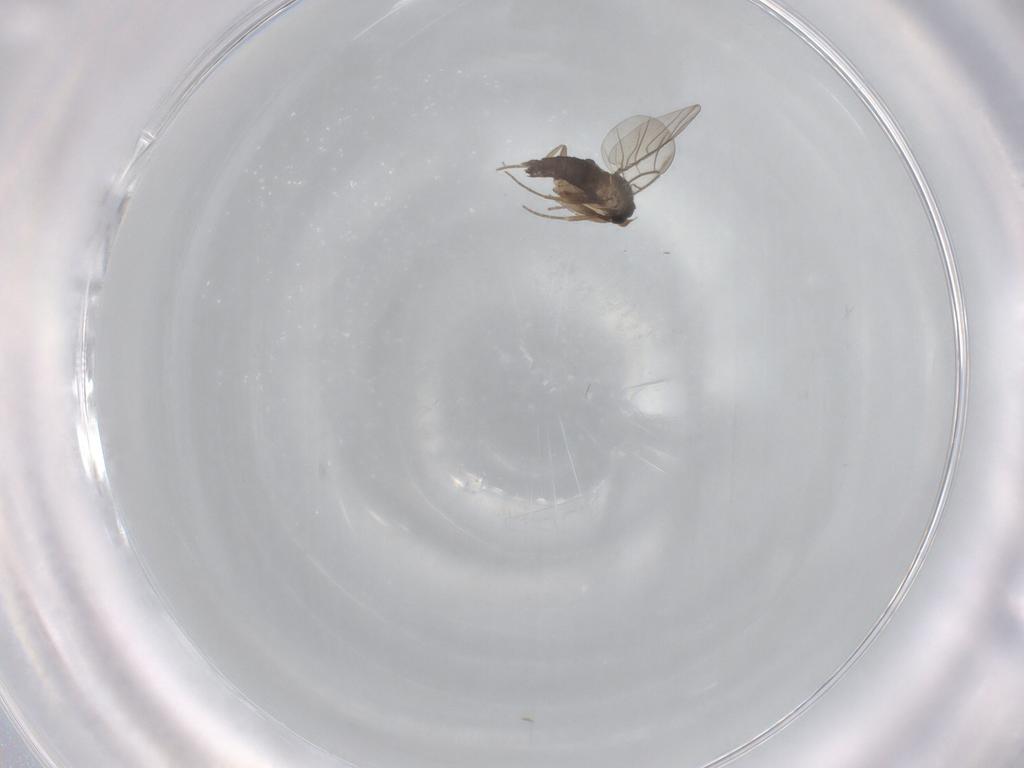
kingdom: Animalia
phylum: Arthropoda
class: Insecta
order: Diptera
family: Phoridae
